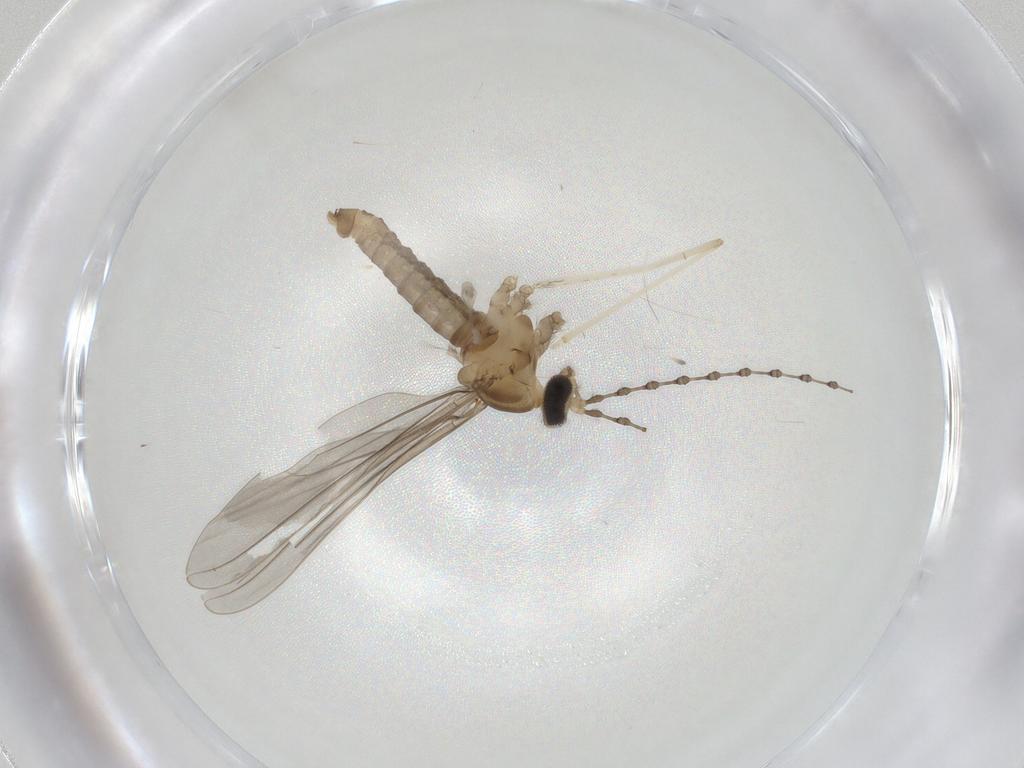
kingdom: Animalia
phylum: Arthropoda
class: Insecta
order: Diptera
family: Cecidomyiidae
